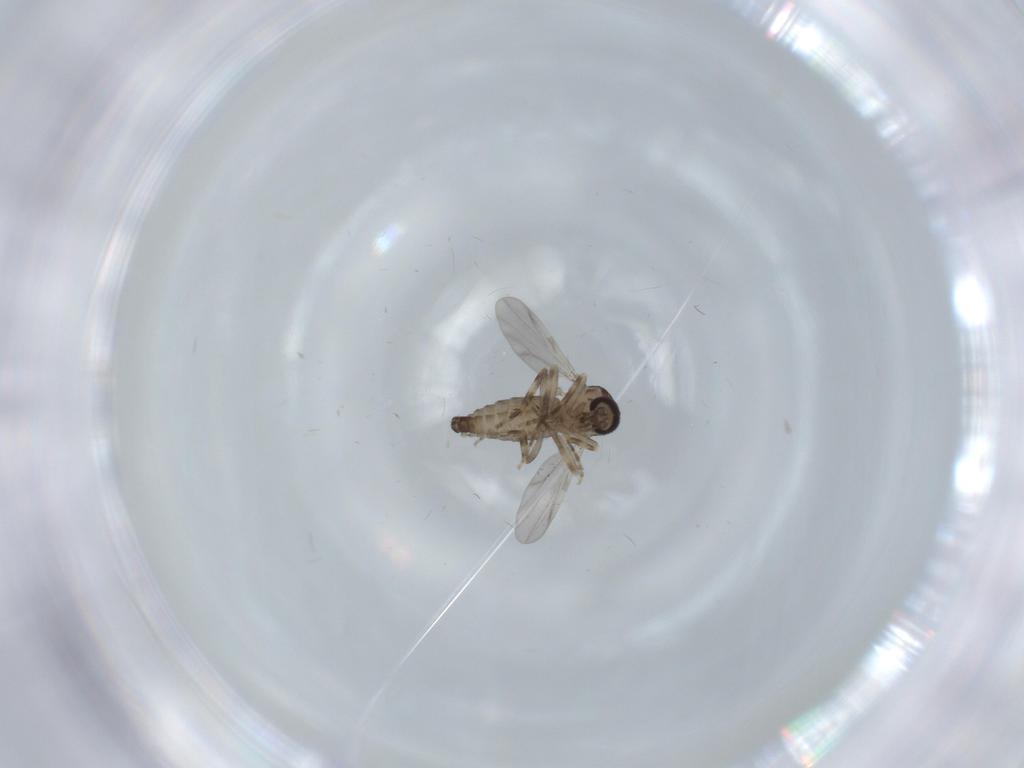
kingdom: Animalia
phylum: Arthropoda
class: Insecta
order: Diptera
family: Ceratopogonidae
